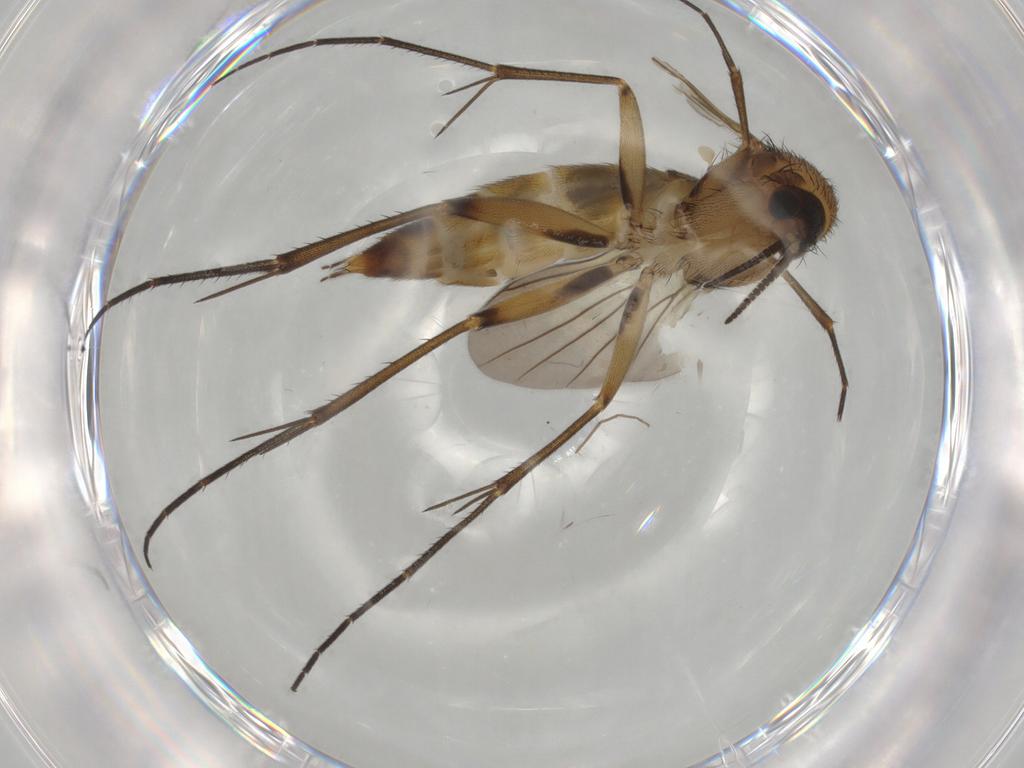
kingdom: Animalia
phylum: Arthropoda
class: Insecta
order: Diptera
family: Mycetophilidae
